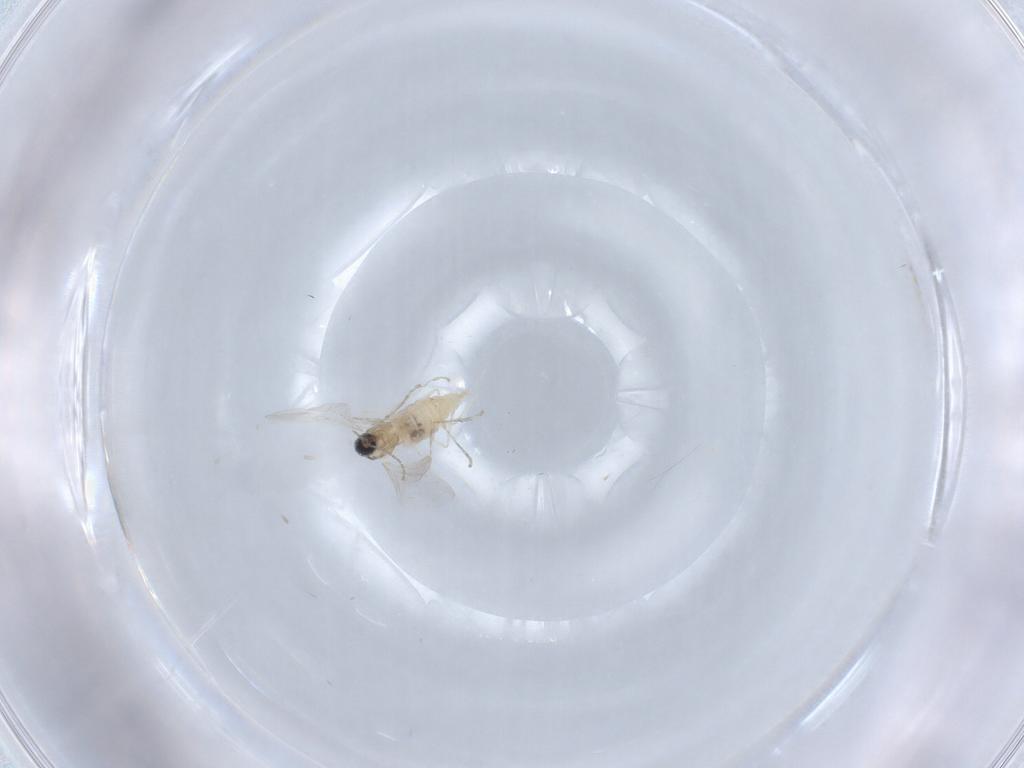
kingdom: Animalia
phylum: Arthropoda
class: Insecta
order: Diptera
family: Cecidomyiidae
